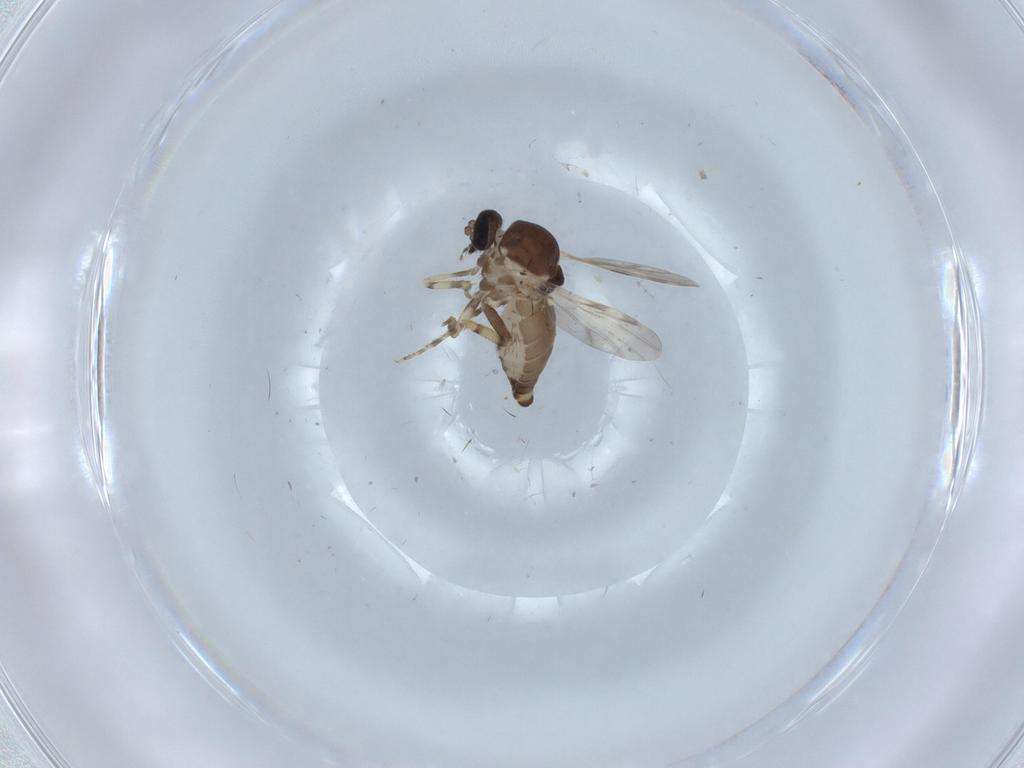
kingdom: Animalia
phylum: Arthropoda
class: Insecta
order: Diptera
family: Ceratopogonidae
